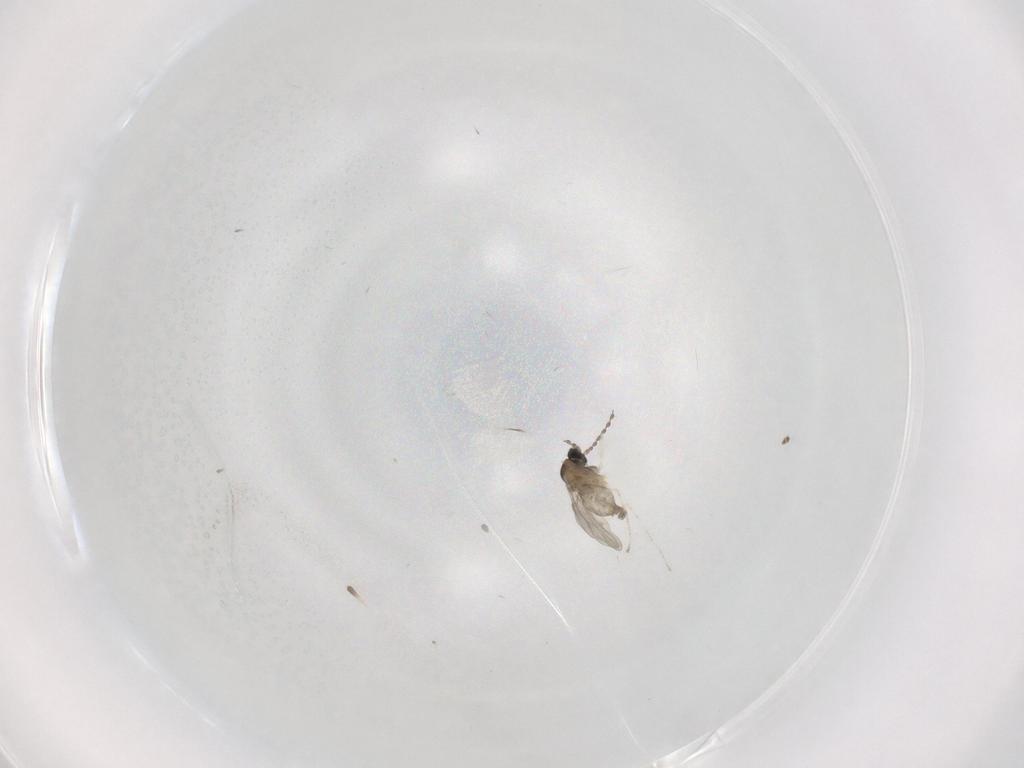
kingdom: Animalia
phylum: Arthropoda
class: Insecta
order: Diptera
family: Cecidomyiidae
